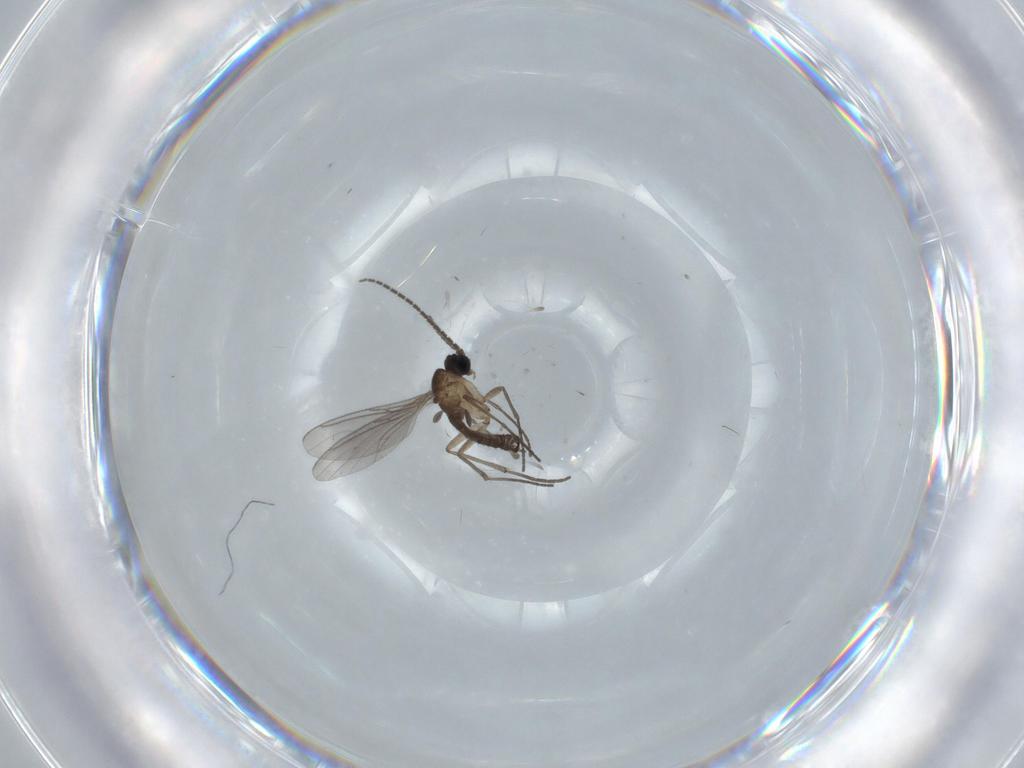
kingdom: Animalia
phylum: Arthropoda
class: Insecta
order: Diptera
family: Sciaridae
